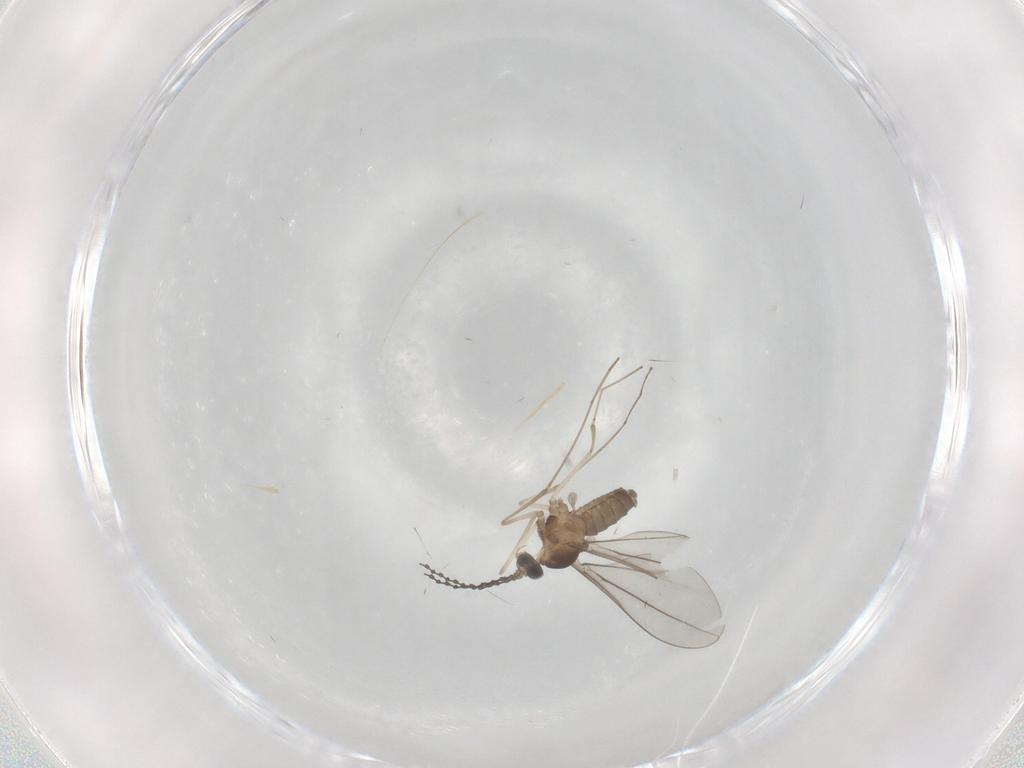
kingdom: Animalia
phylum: Arthropoda
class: Insecta
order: Diptera
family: Cecidomyiidae
